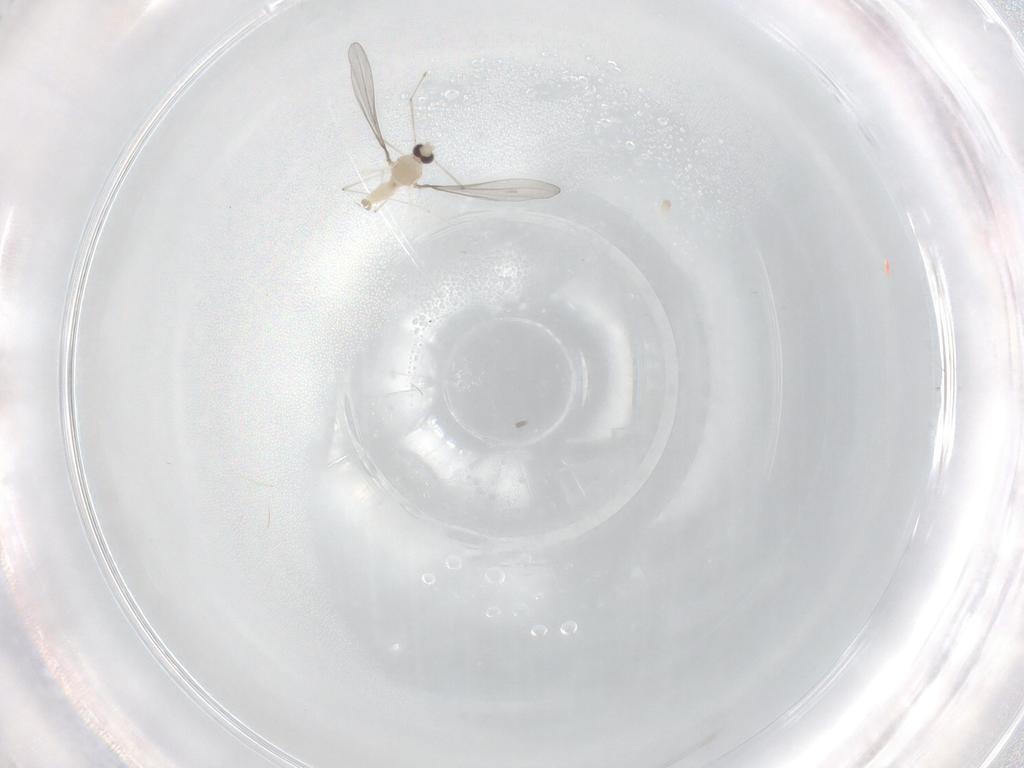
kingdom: Animalia
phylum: Arthropoda
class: Insecta
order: Diptera
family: Cecidomyiidae
